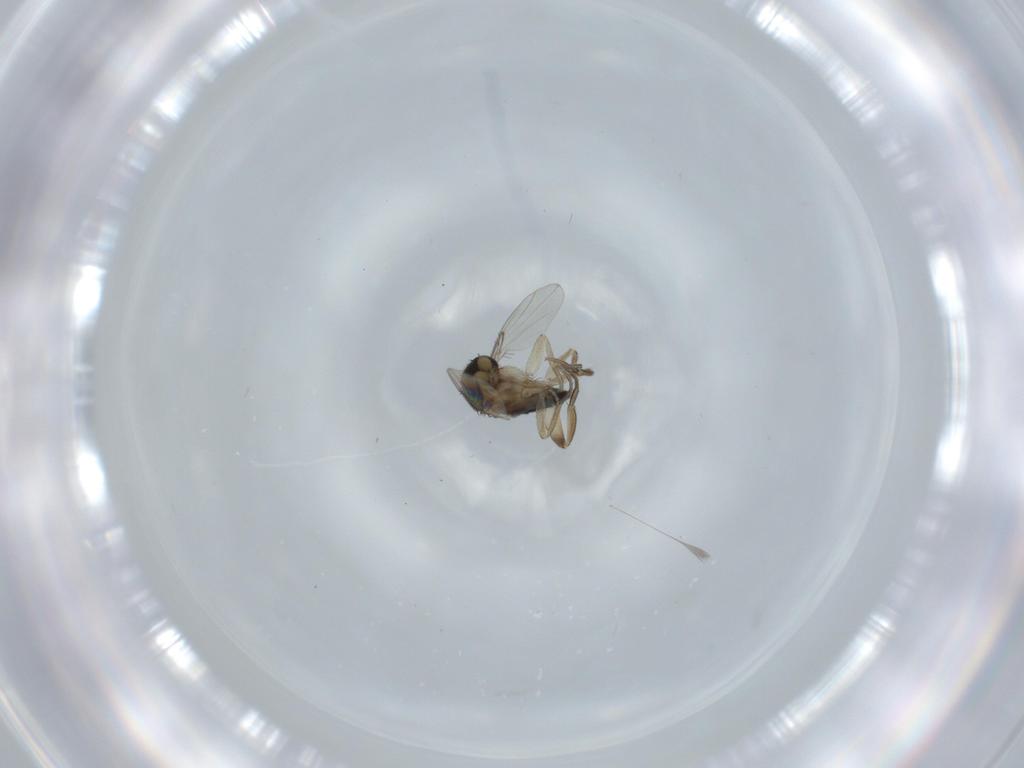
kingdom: Animalia
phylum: Arthropoda
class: Insecta
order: Diptera
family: Phoridae
